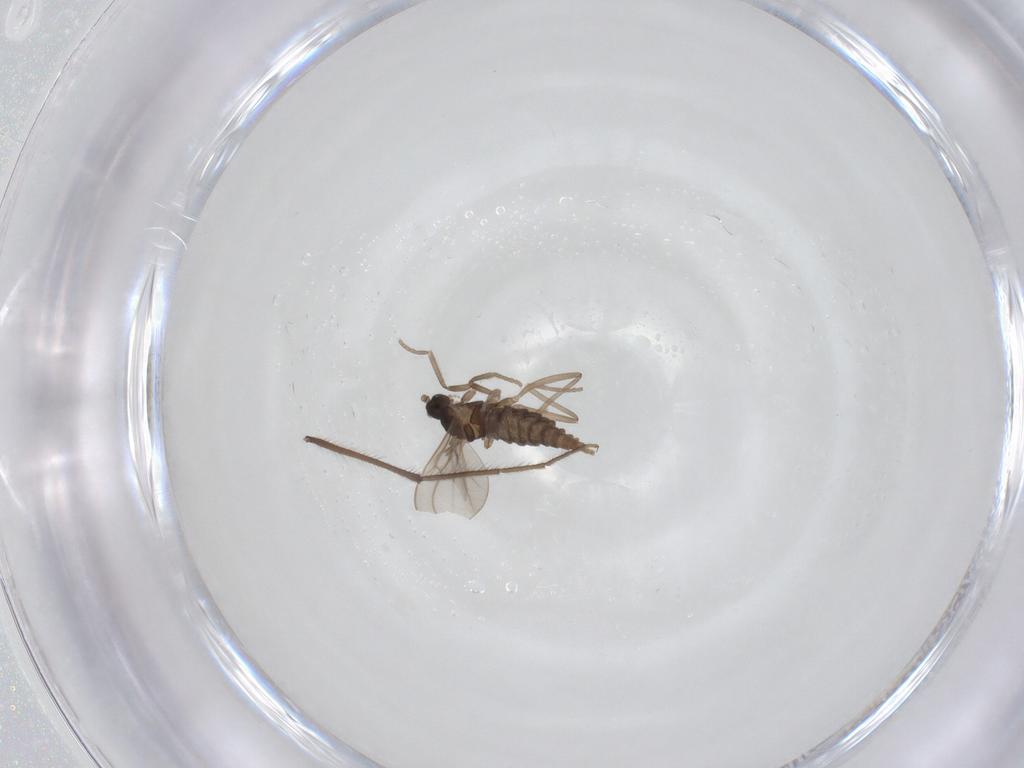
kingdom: Animalia
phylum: Arthropoda
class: Insecta
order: Diptera
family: Cecidomyiidae
